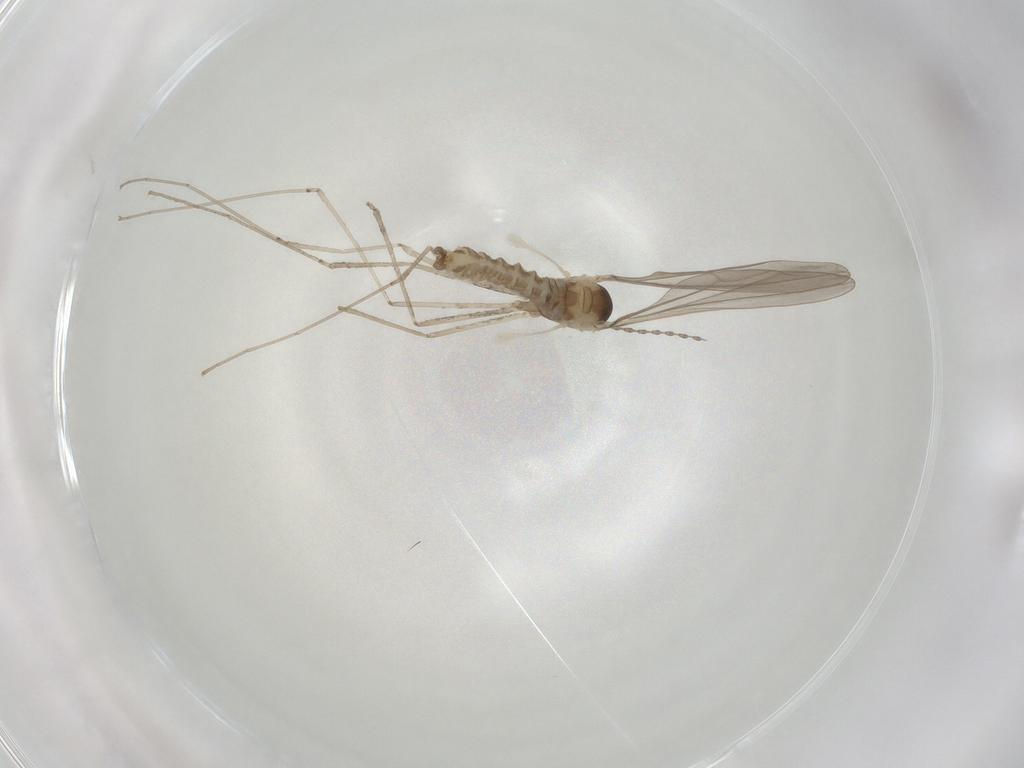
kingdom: Animalia
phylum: Arthropoda
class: Insecta
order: Diptera
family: Cecidomyiidae
